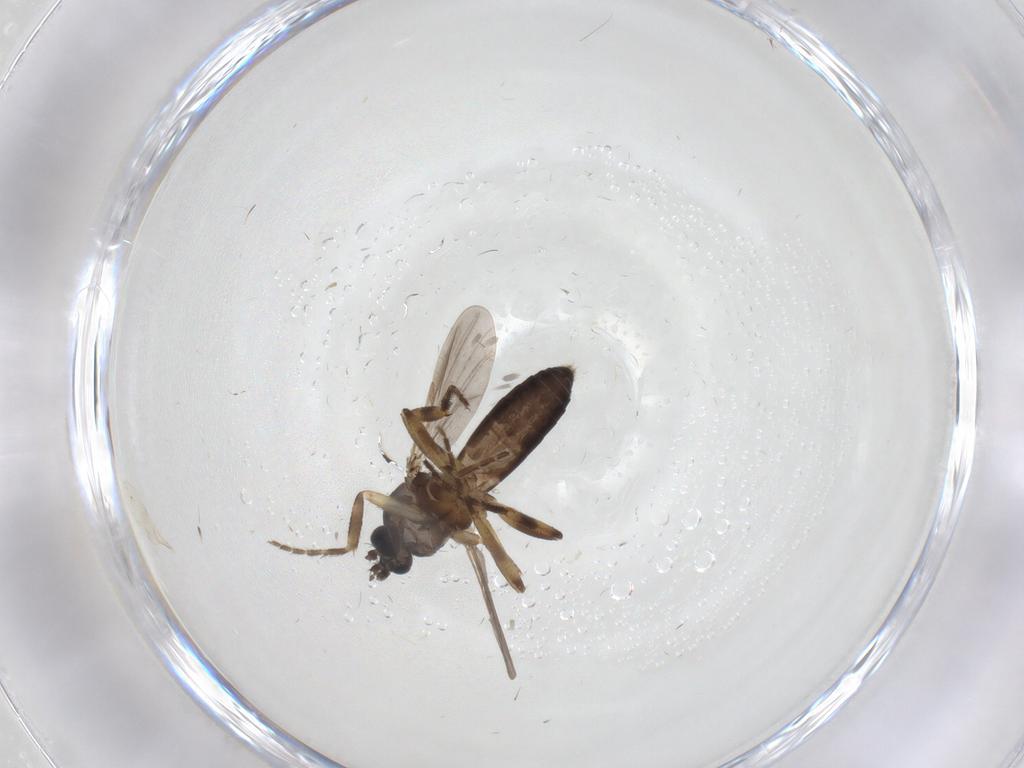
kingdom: Animalia
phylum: Arthropoda
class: Insecta
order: Diptera
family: Ceratopogonidae
